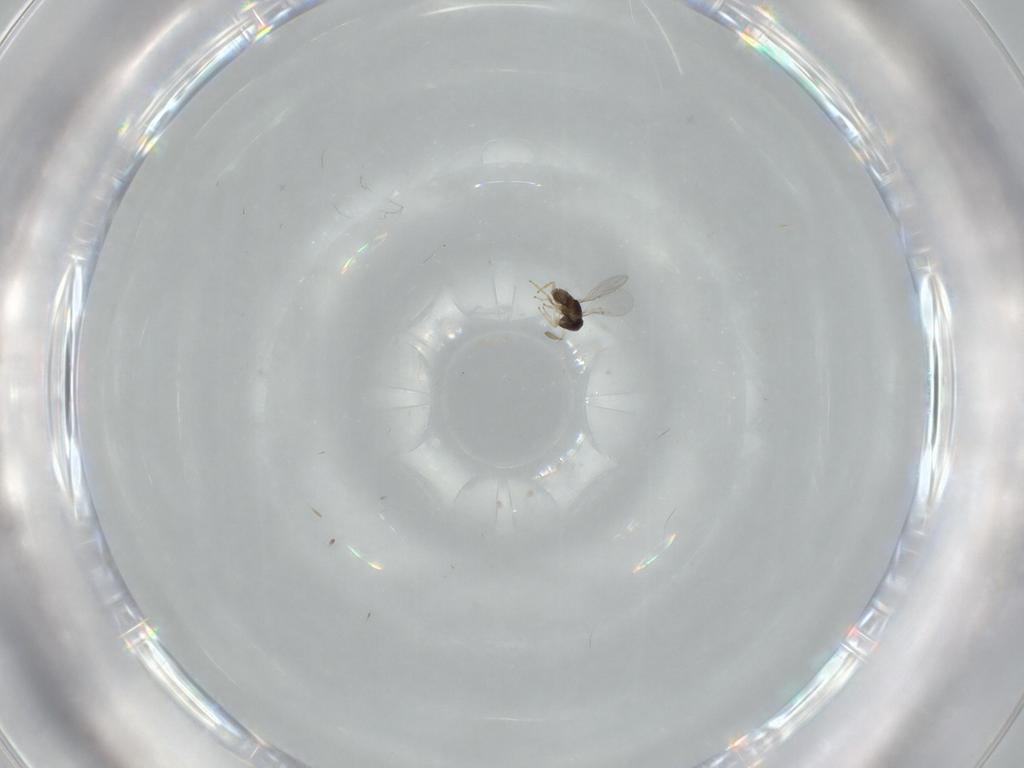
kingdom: Animalia
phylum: Arthropoda
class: Insecta
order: Hymenoptera
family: Encyrtidae
